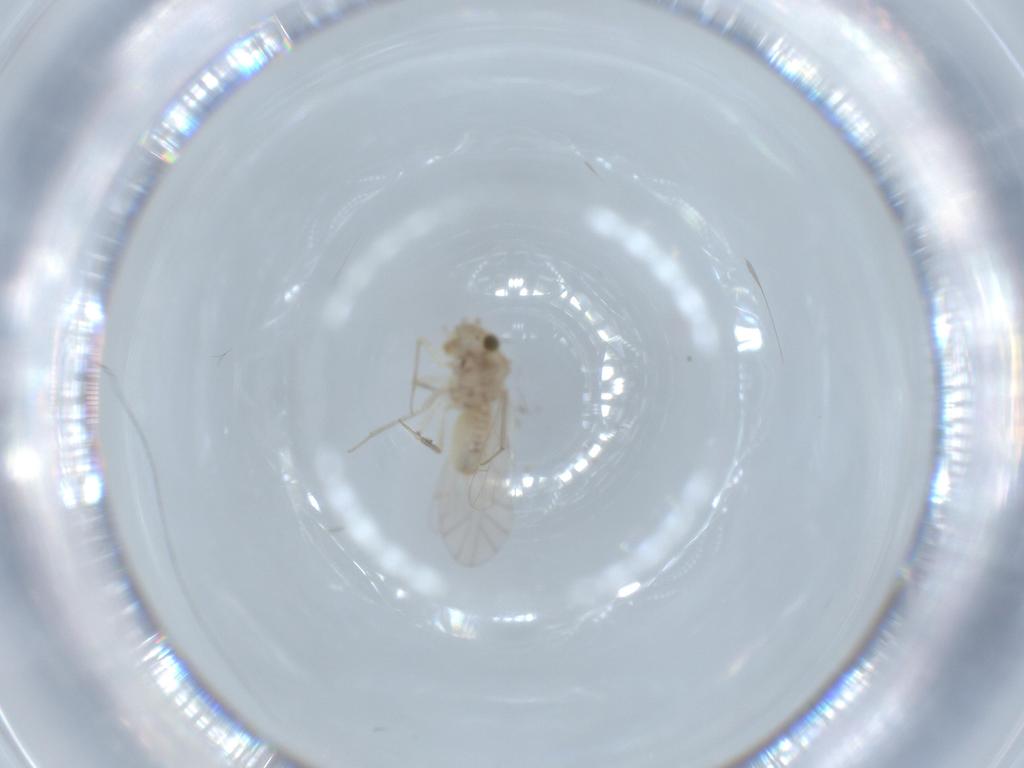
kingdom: Animalia
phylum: Arthropoda
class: Insecta
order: Psocodea
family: Lachesillidae
